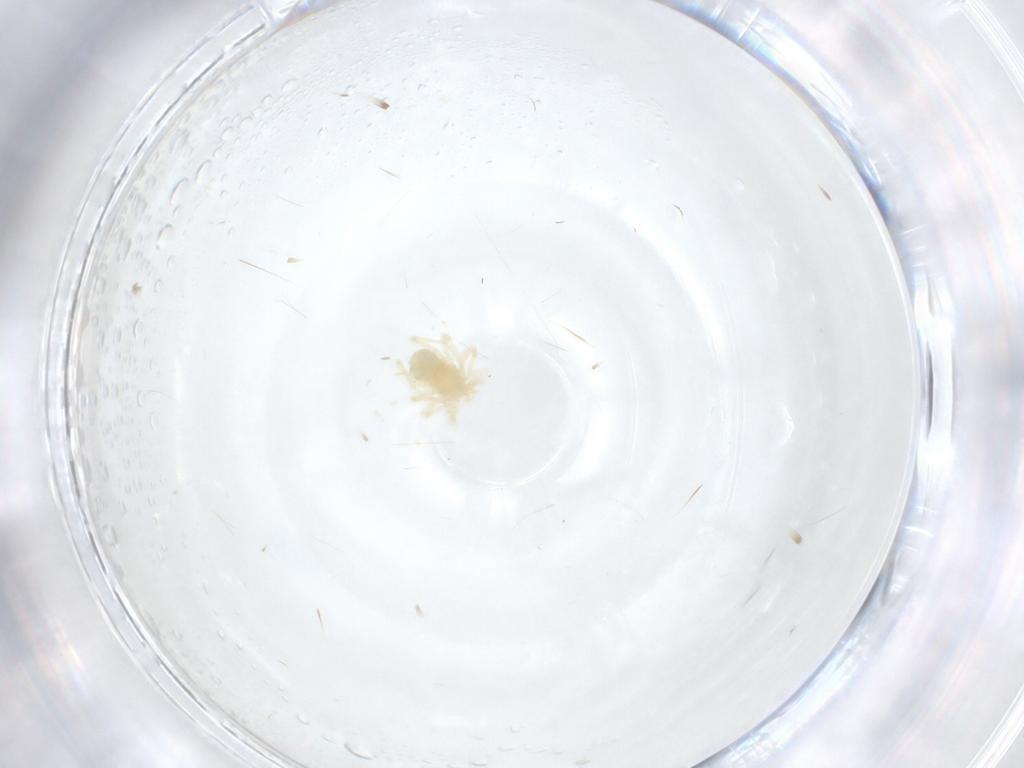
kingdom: Animalia
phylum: Arthropoda
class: Arachnida
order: Trombidiformes
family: Anystidae
